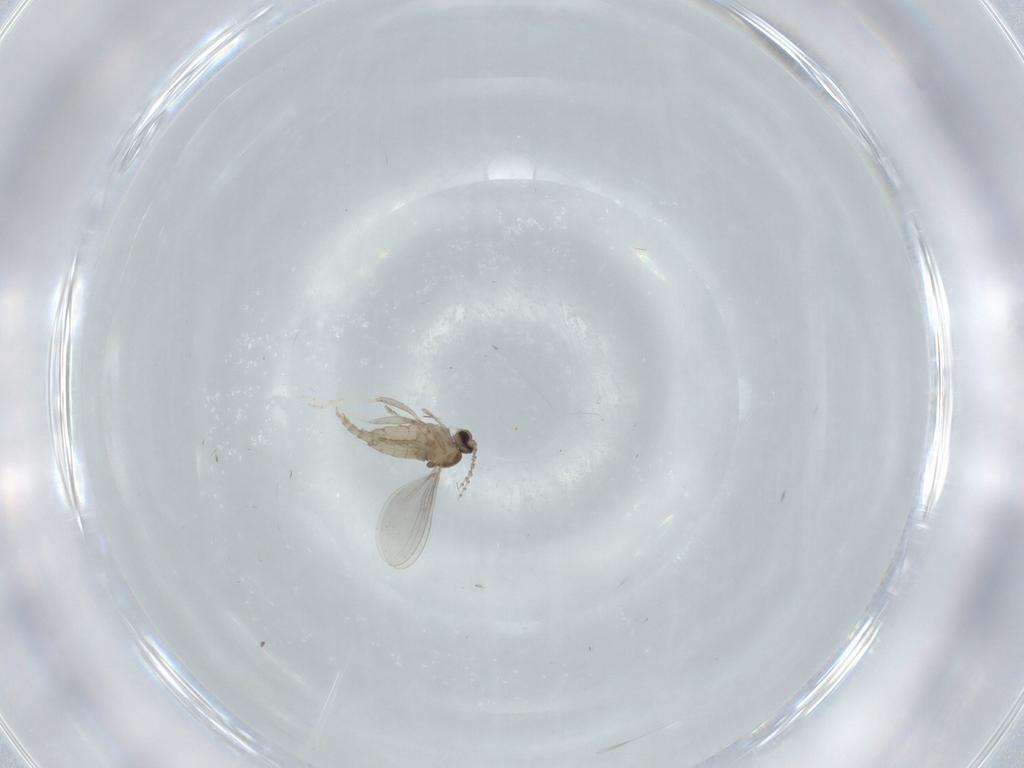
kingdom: Animalia
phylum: Arthropoda
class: Insecta
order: Diptera
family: Cecidomyiidae
